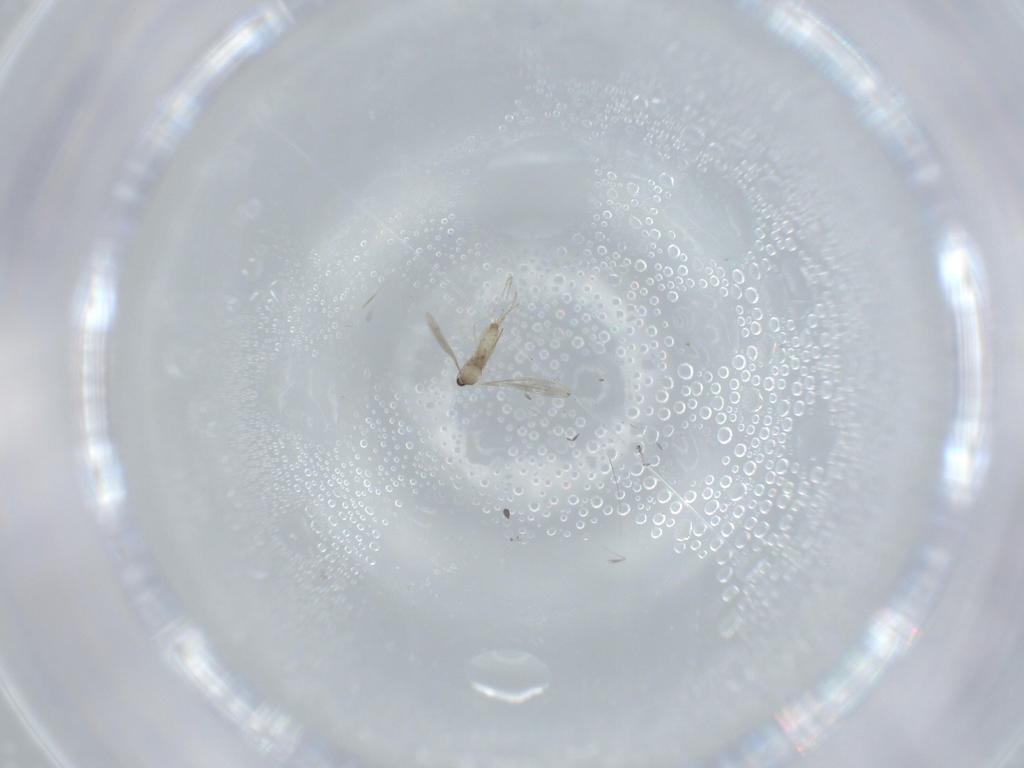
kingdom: Animalia
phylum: Arthropoda
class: Insecta
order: Diptera
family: Cecidomyiidae
